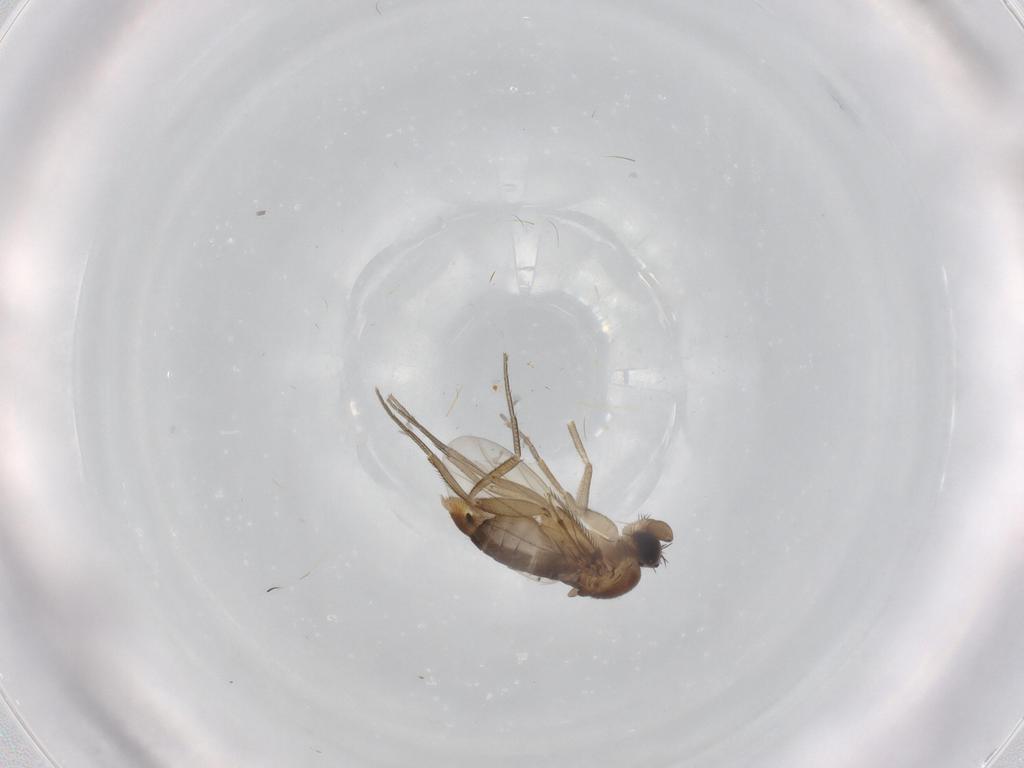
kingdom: Animalia
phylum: Arthropoda
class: Insecta
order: Diptera
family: Phoridae
